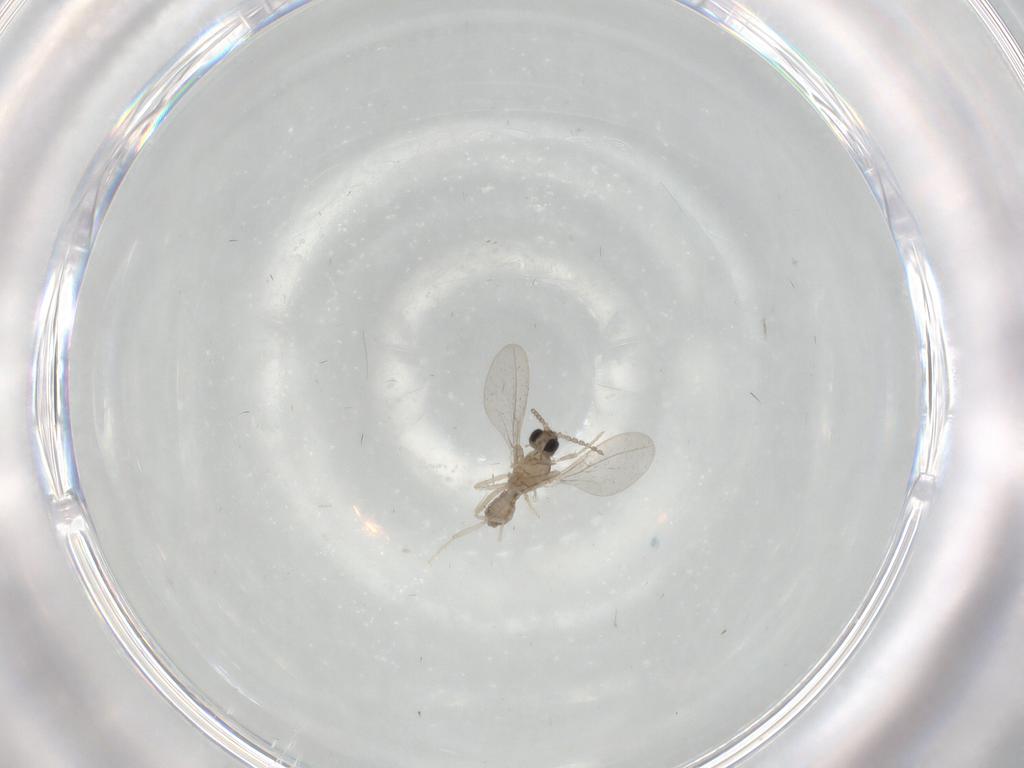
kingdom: Animalia
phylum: Arthropoda
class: Insecta
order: Diptera
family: Cecidomyiidae
